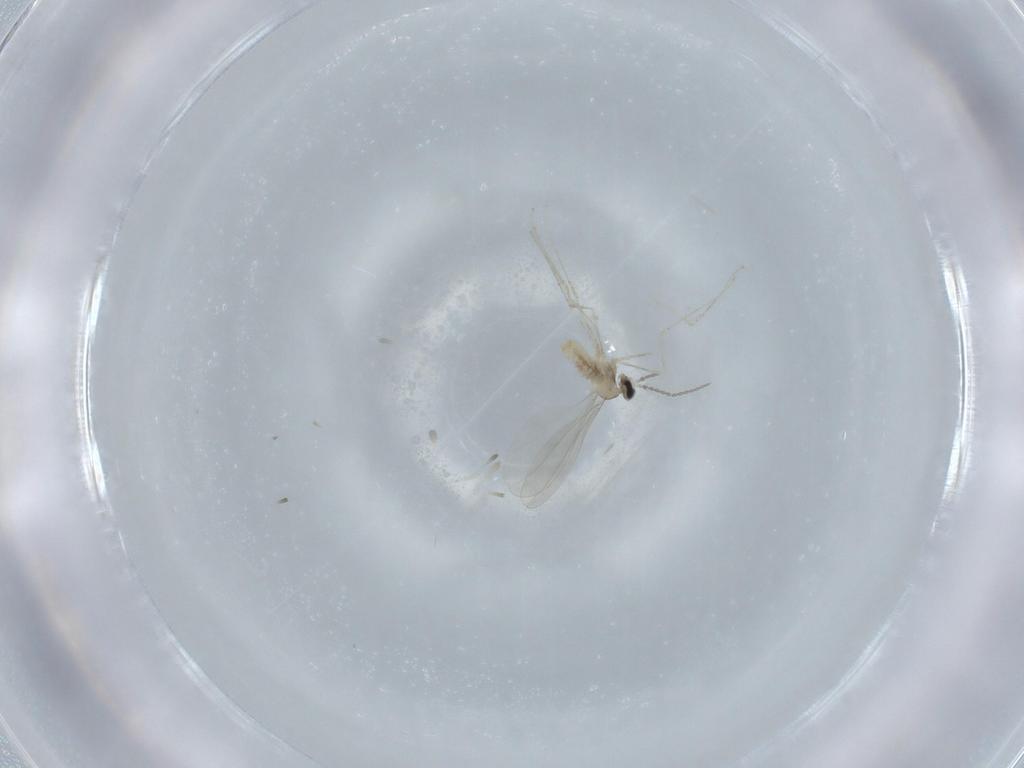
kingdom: Animalia
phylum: Arthropoda
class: Insecta
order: Diptera
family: Cecidomyiidae
